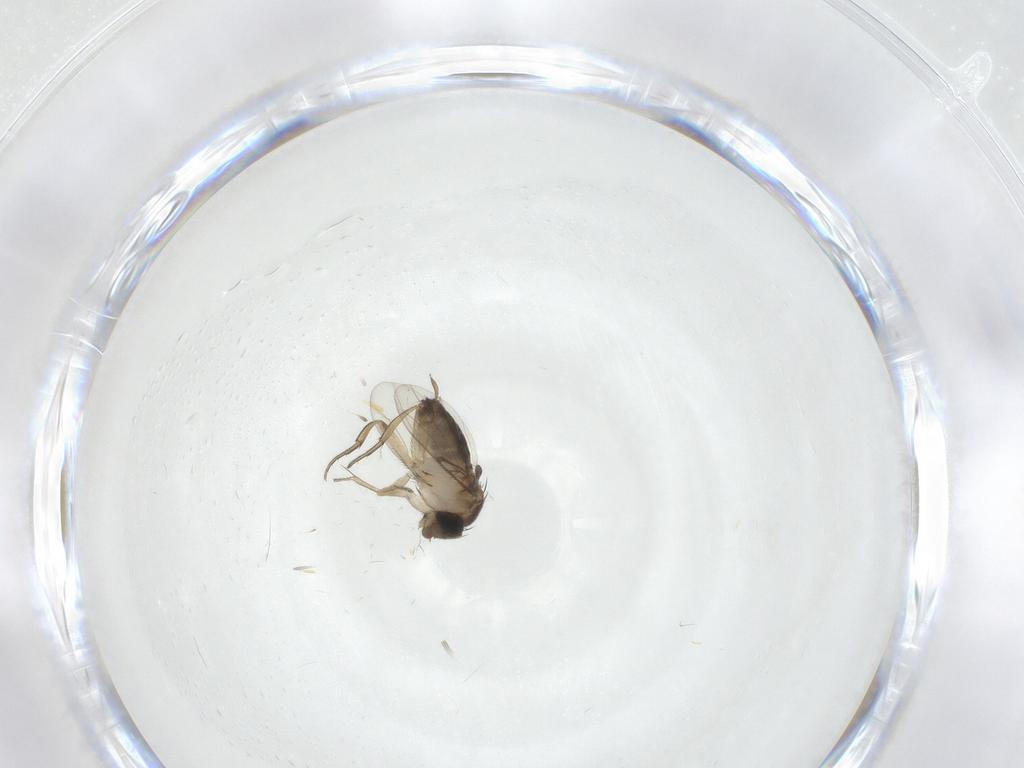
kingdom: Animalia
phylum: Arthropoda
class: Insecta
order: Diptera
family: Chironomidae
